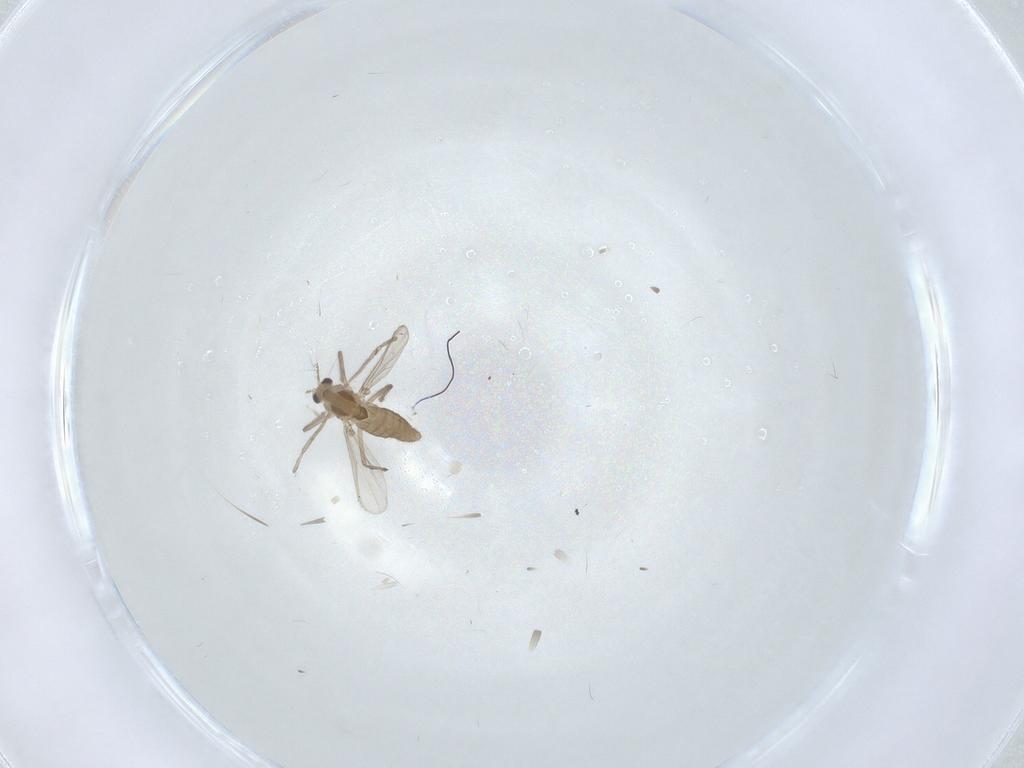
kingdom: Animalia
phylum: Arthropoda
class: Insecta
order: Diptera
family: Chironomidae
